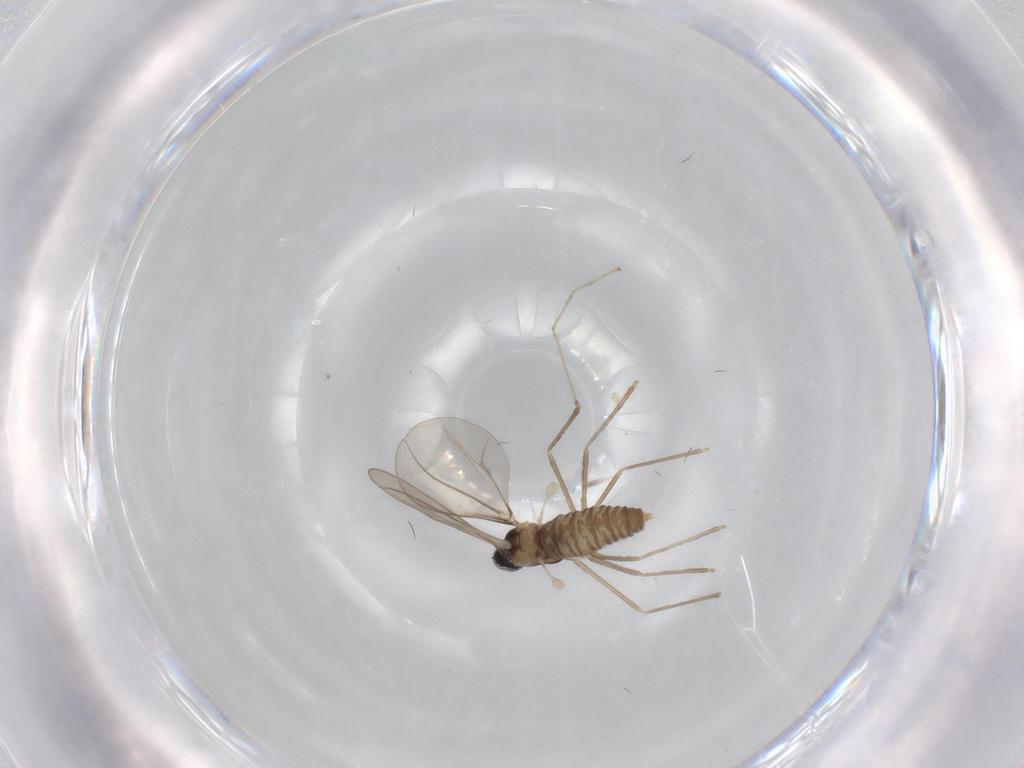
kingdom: Animalia
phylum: Arthropoda
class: Insecta
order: Diptera
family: Cecidomyiidae
